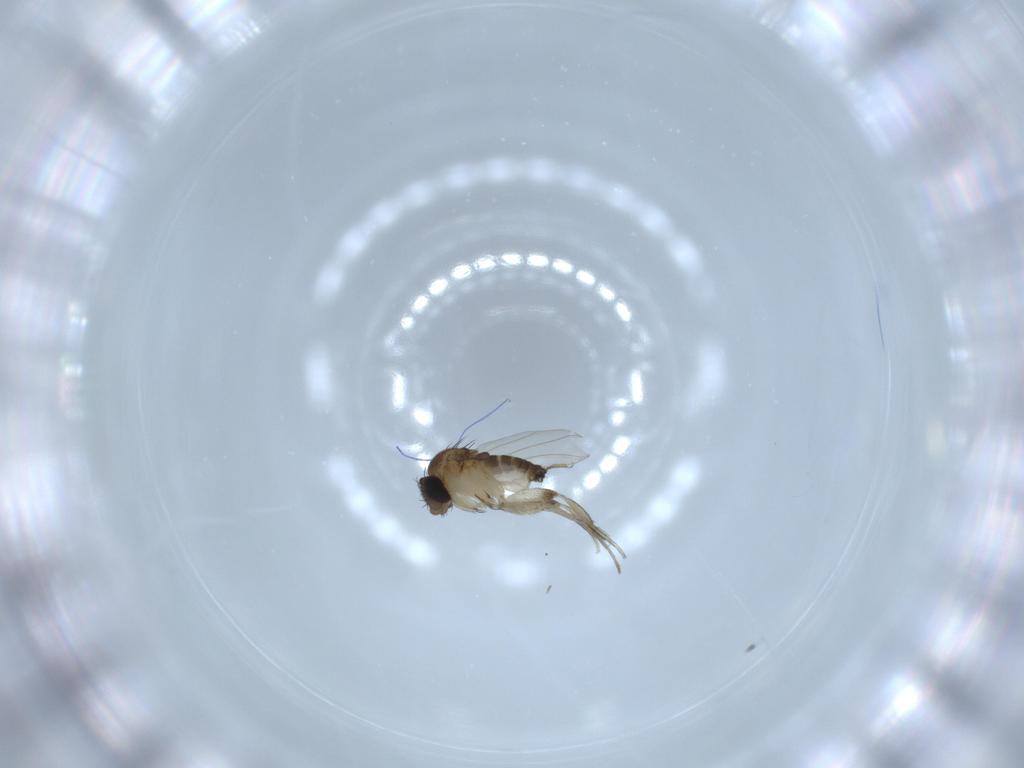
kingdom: Animalia
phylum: Arthropoda
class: Insecta
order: Diptera
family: Phoridae
